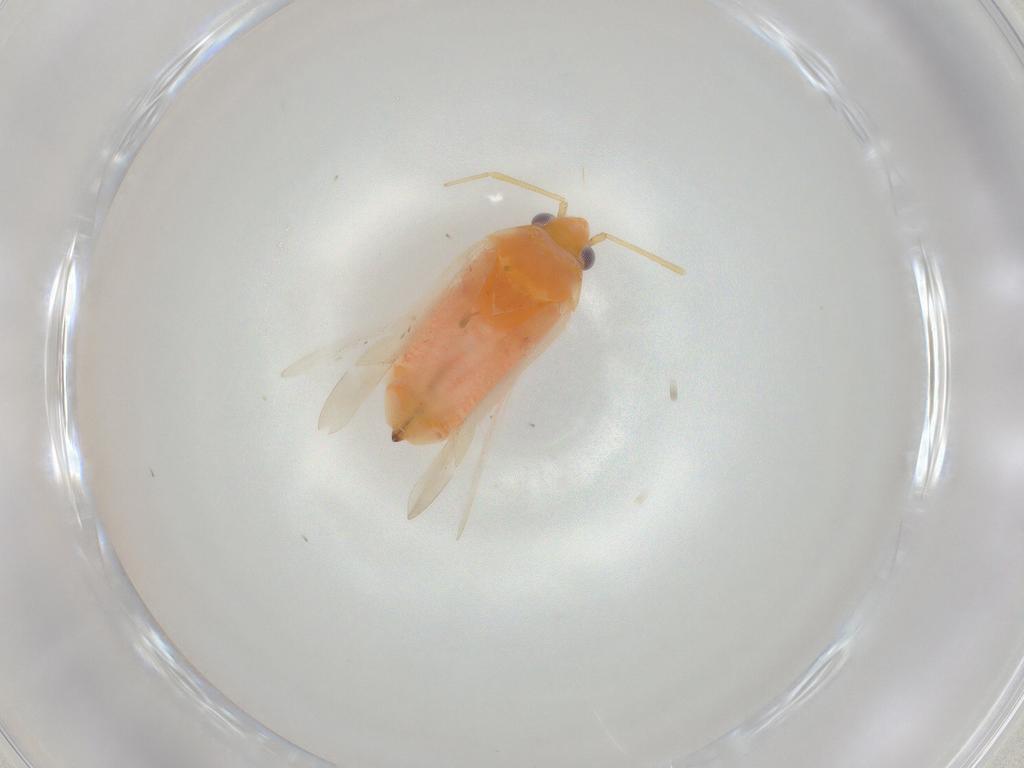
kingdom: Animalia
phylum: Arthropoda
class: Insecta
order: Hemiptera
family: Miridae
